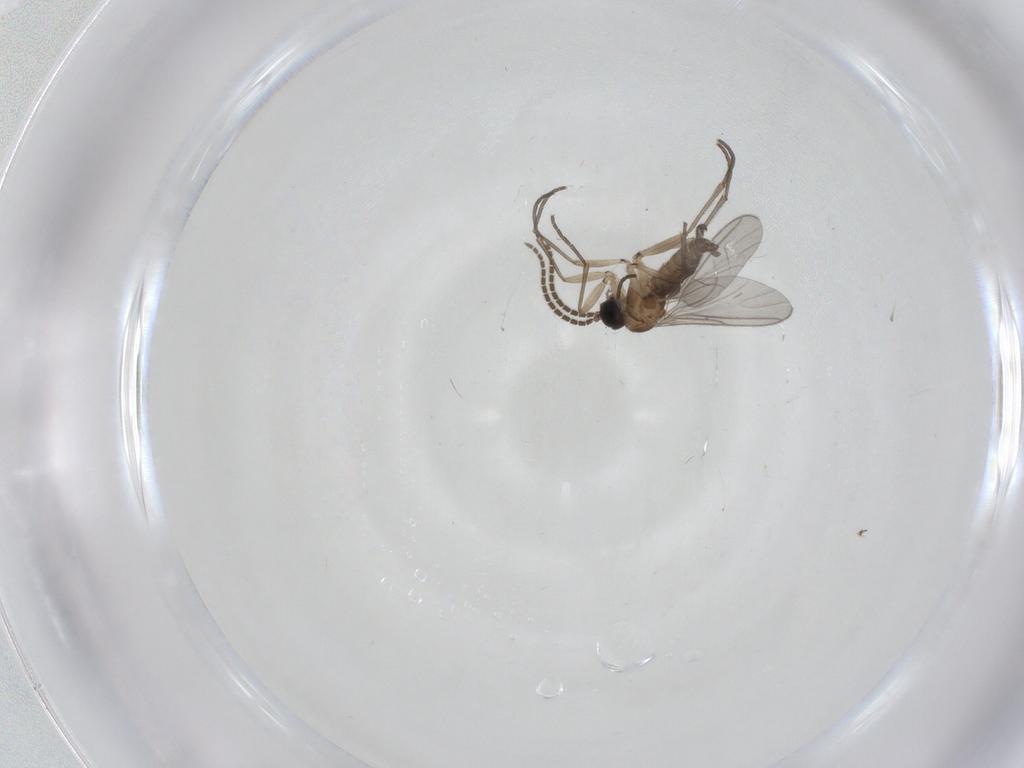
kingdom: Animalia
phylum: Arthropoda
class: Insecta
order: Diptera
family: Sciaridae
